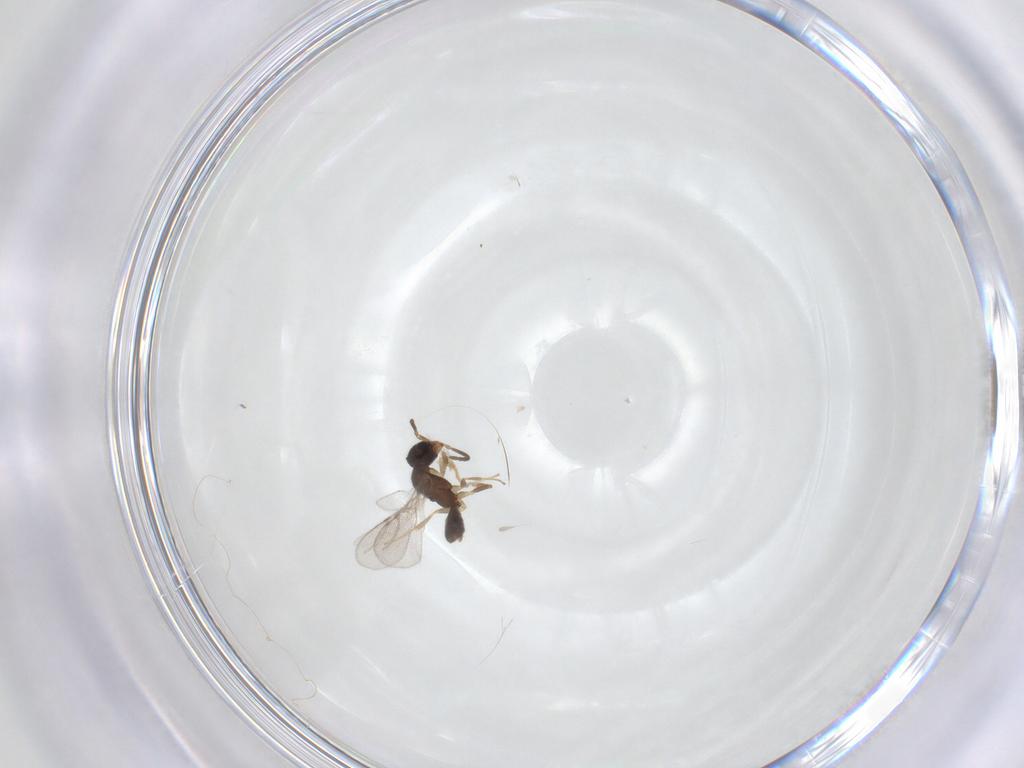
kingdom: Animalia
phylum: Arthropoda
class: Insecta
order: Hymenoptera
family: Bethylidae
